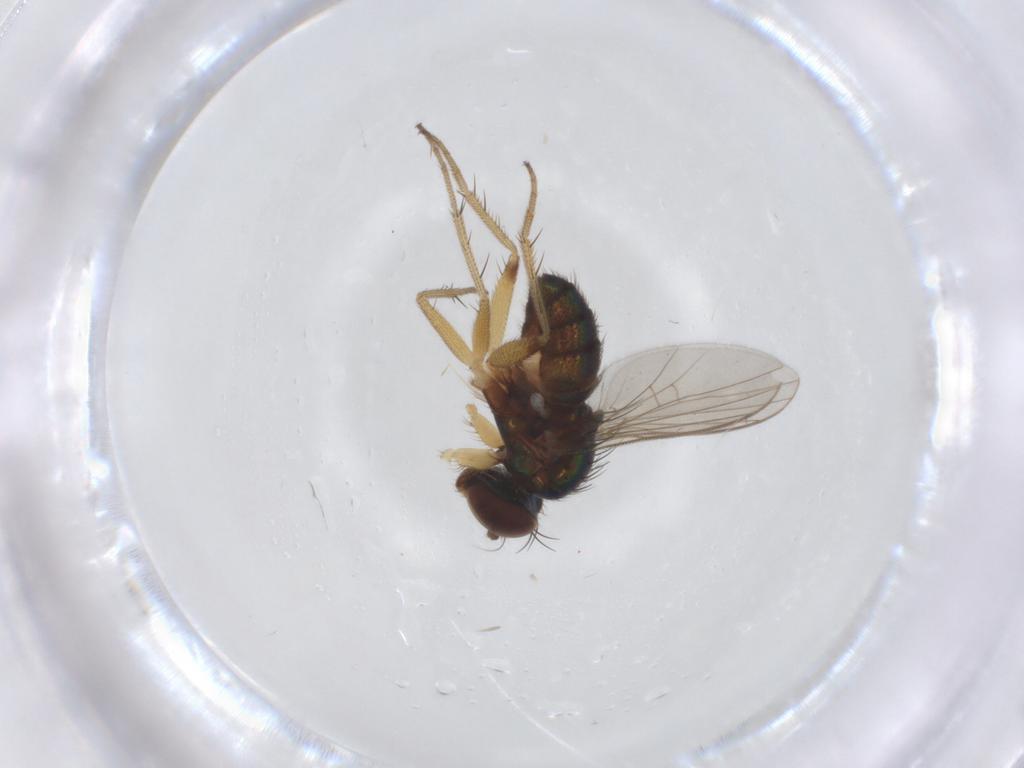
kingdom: Animalia
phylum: Arthropoda
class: Insecta
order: Diptera
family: Dolichopodidae
